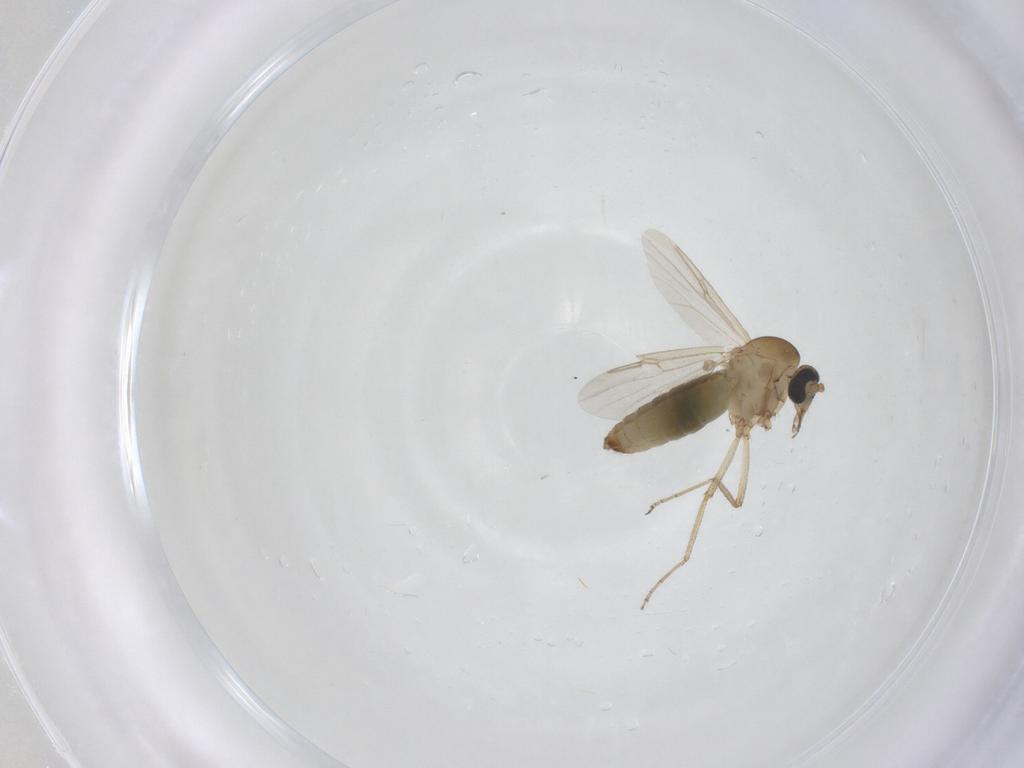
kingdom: Animalia
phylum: Arthropoda
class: Insecta
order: Diptera
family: Ceratopogonidae
